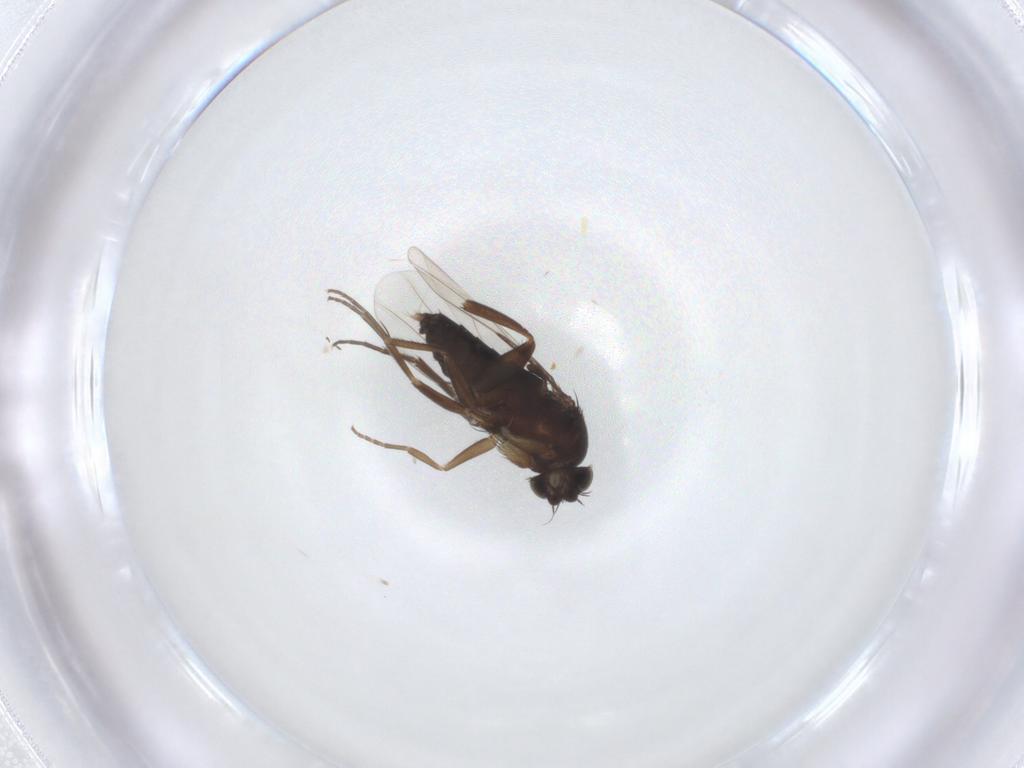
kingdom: Animalia
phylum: Arthropoda
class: Insecta
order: Diptera
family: Phoridae
